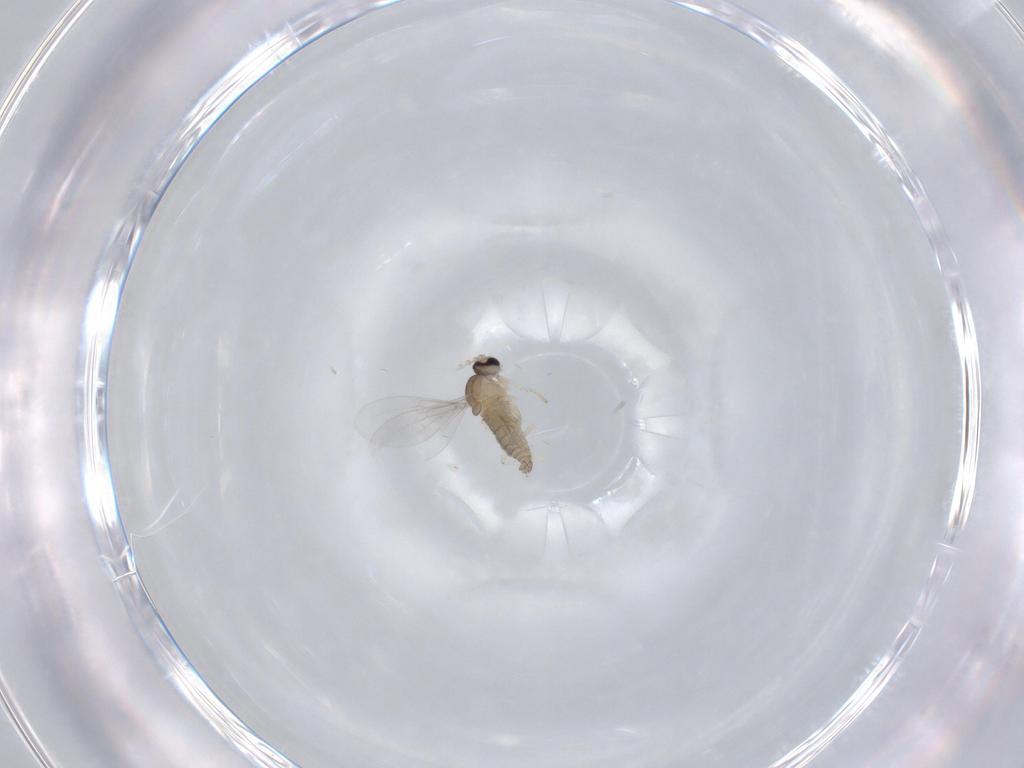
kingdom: Animalia
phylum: Arthropoda
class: Insecta
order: Diptera
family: Cecidomyiidae
